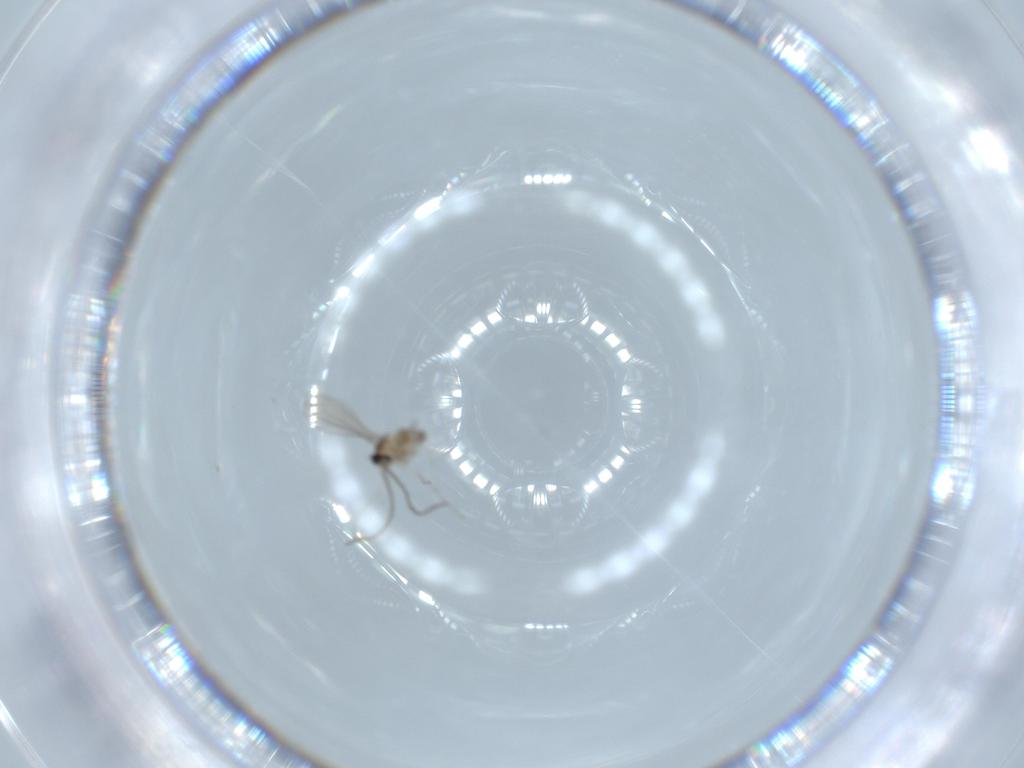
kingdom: Animalia
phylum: Arthropoda
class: Insecta
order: Diptera
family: Cecidomyiidae
